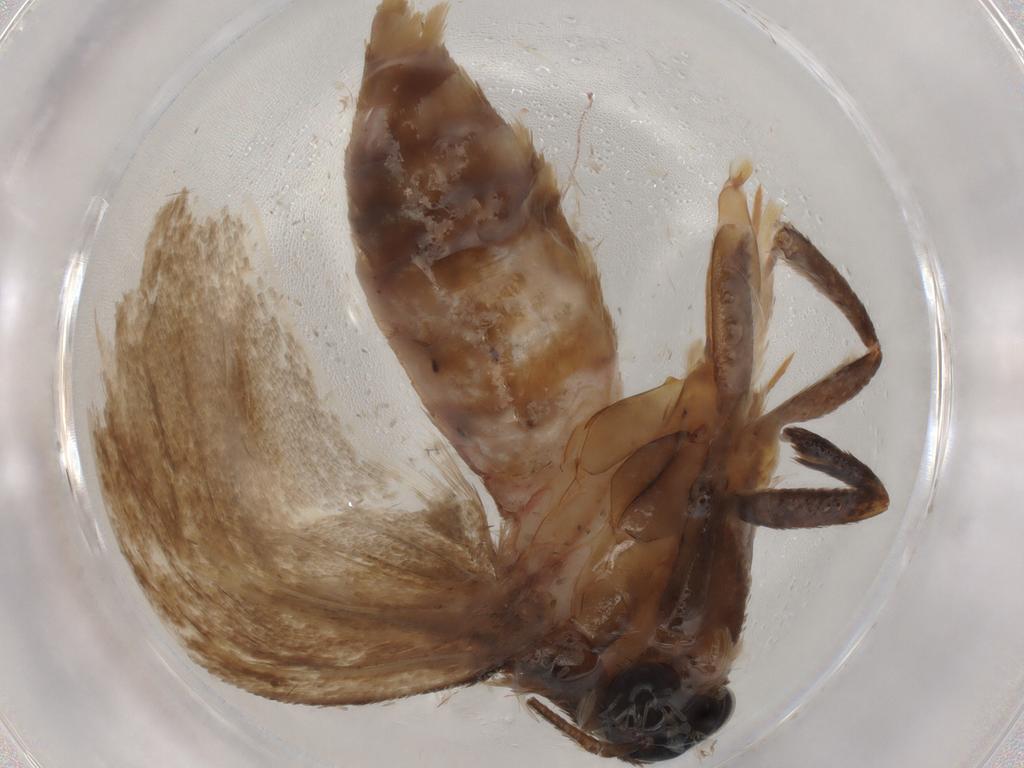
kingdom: Animalia
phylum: Arthropoda
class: Insecta
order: Lepidoptera
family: Oecophoridae
